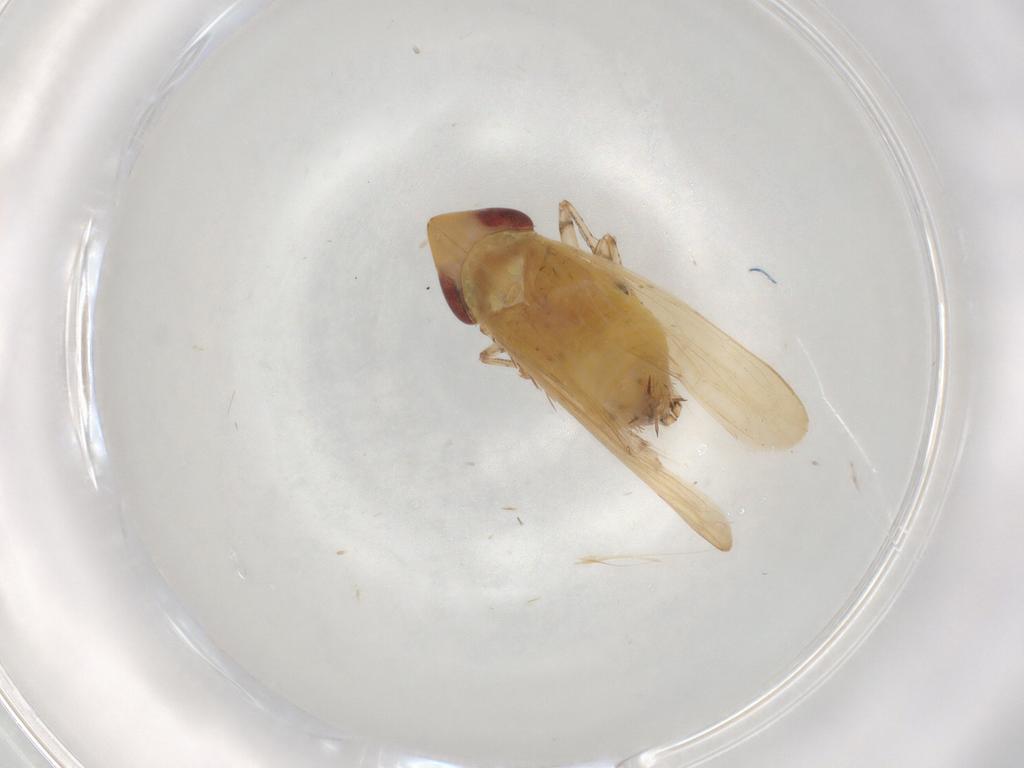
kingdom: Animalia
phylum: Arthropoda
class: Insecta
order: Hemiptera
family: Cicadellidae
